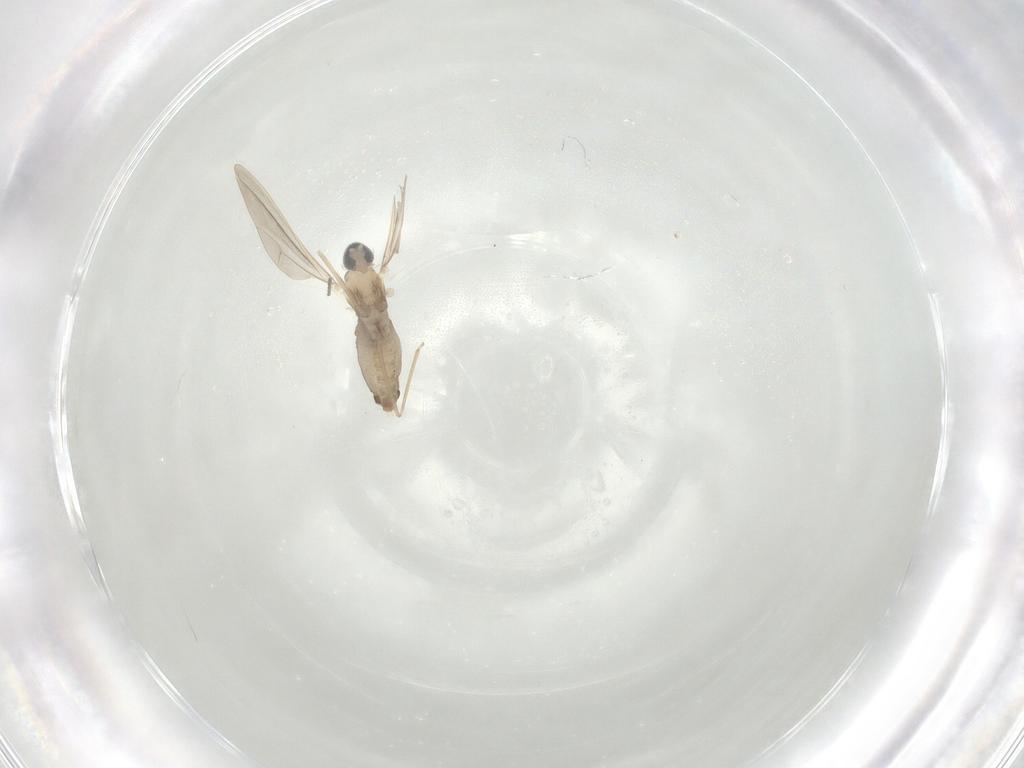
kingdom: Animalia
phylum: Arthropoda
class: Insecta
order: Diptera
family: Cecidomyiidae
